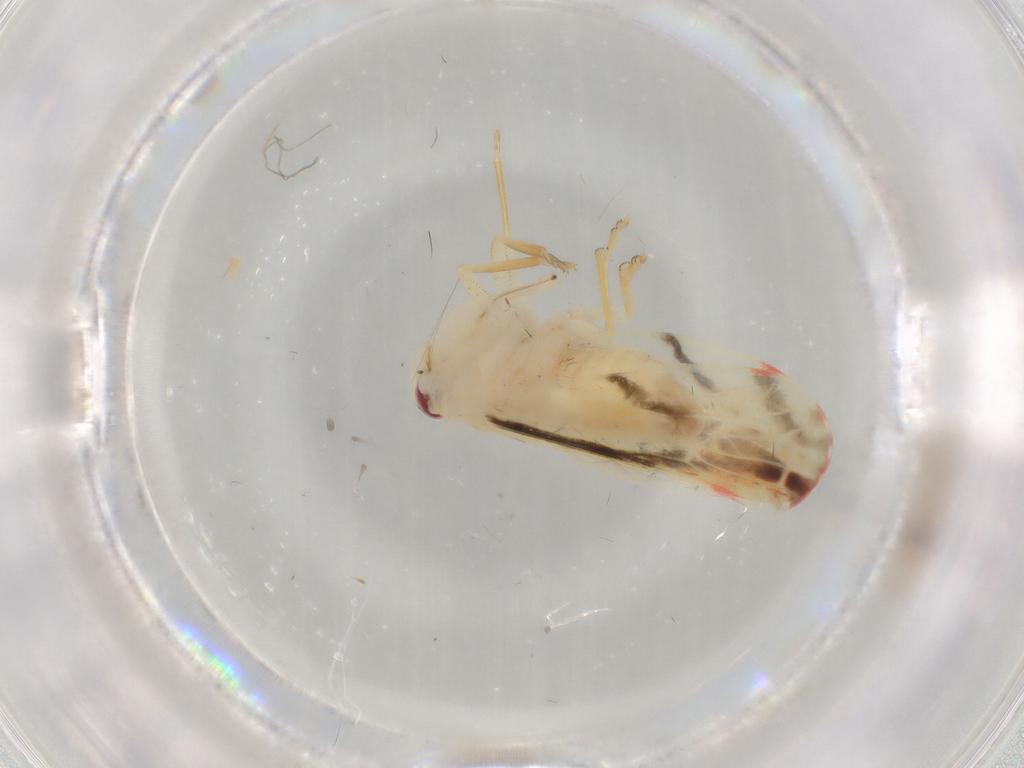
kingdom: Animalia
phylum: Arthropoda
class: Insecta
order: Hemiptera
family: Derbidae
